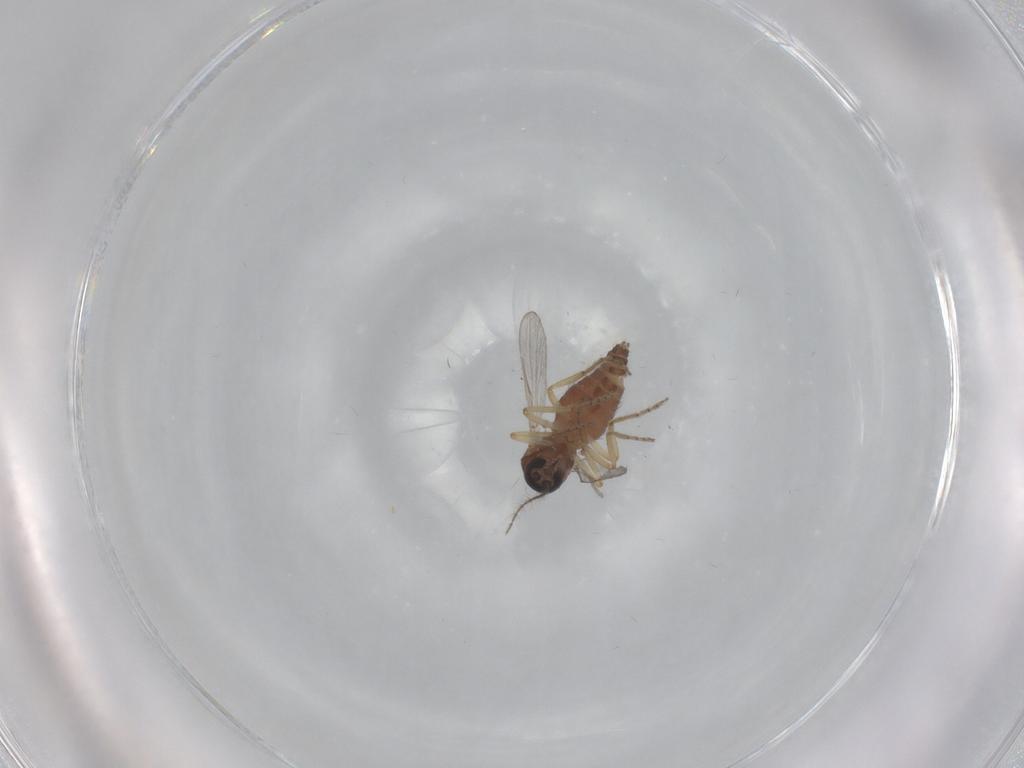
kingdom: Animalia
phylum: Arthropoda
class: Insecta
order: Diptera
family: Ceratopogonidae
